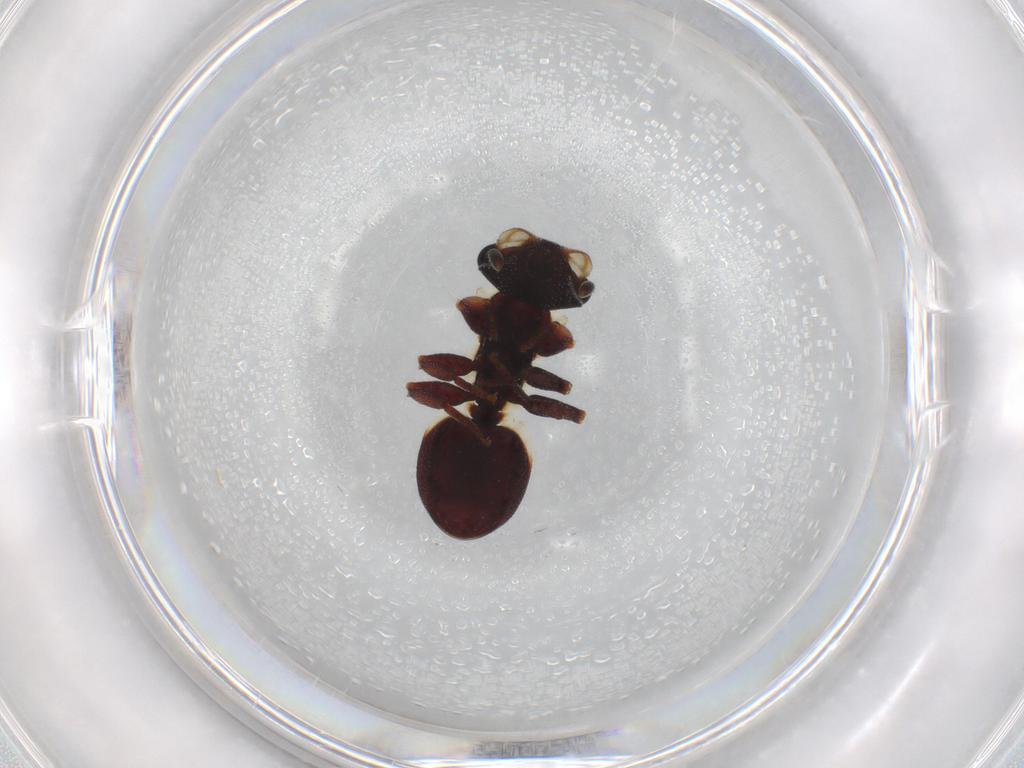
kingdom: Animalia
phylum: Arthropoda
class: Insecta
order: Hymenoptera
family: Formicidae
